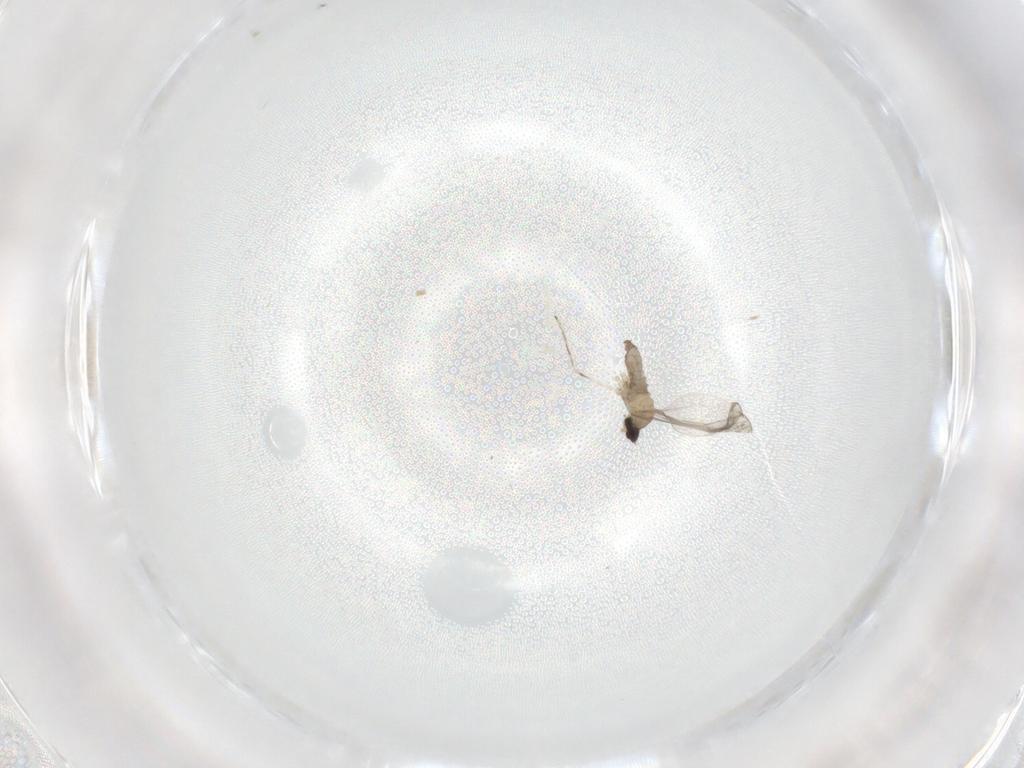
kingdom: Animalia
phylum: Arthropoda
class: Insecta
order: Diptera
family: Cecidomyiidae
